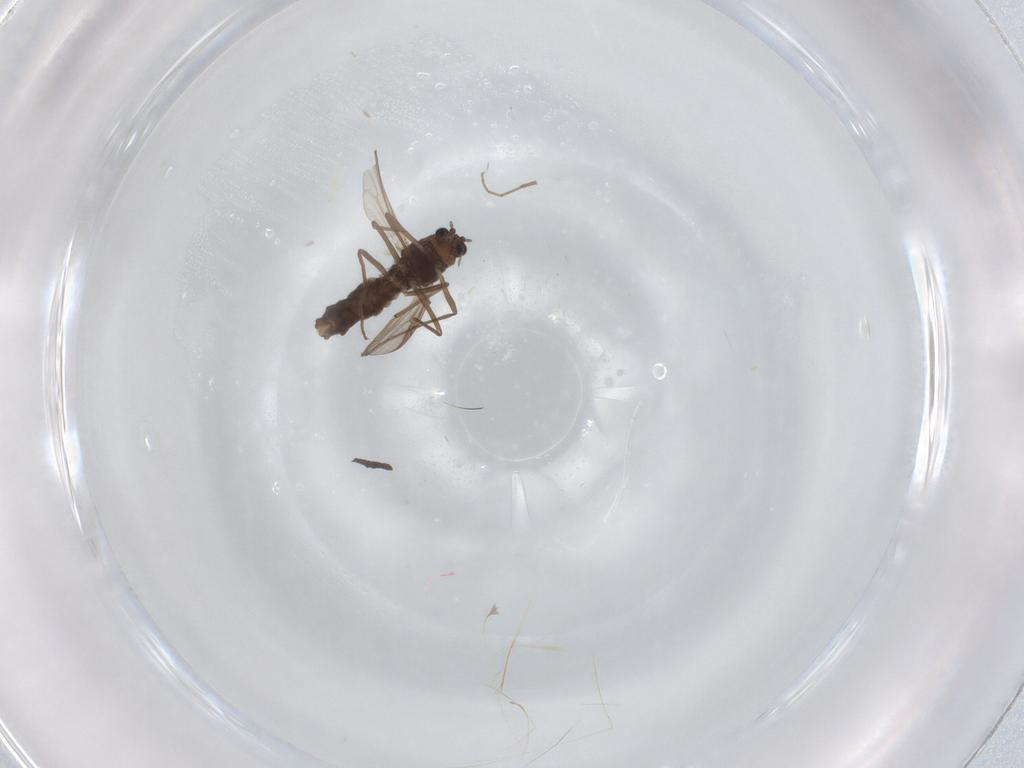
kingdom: Animalia
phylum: Arthropoda
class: Insecta
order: Diptera
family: Chironomidae
